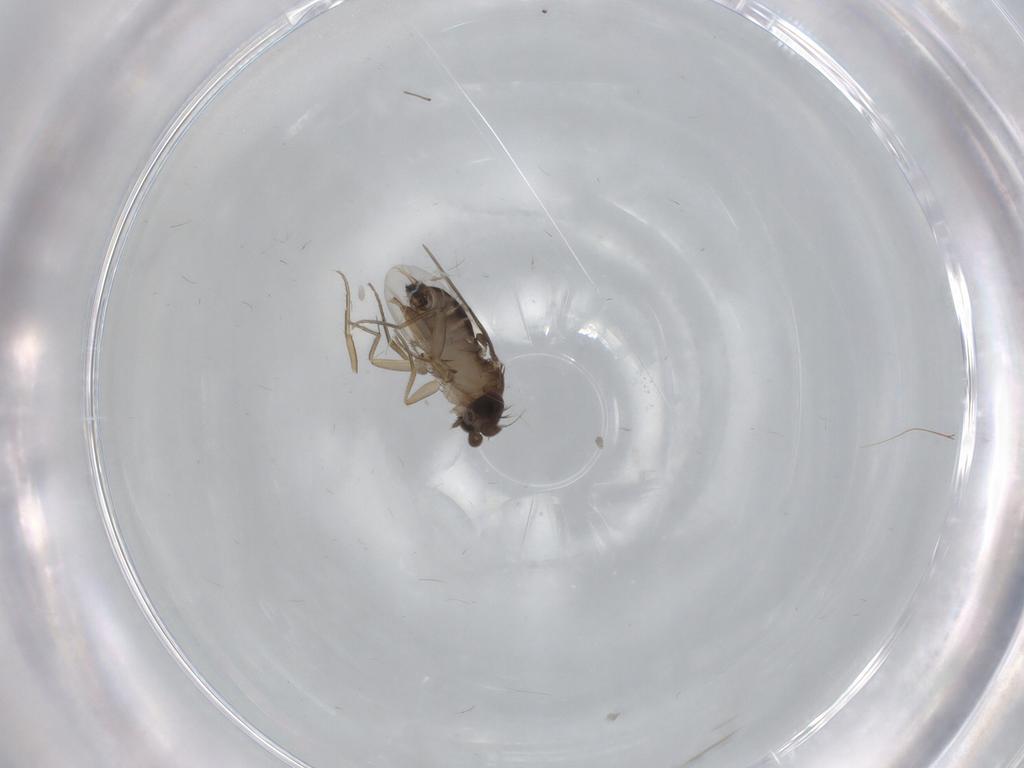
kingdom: Animalia
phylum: Arthropoda
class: Insecta
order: Diptera
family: Phoridae
